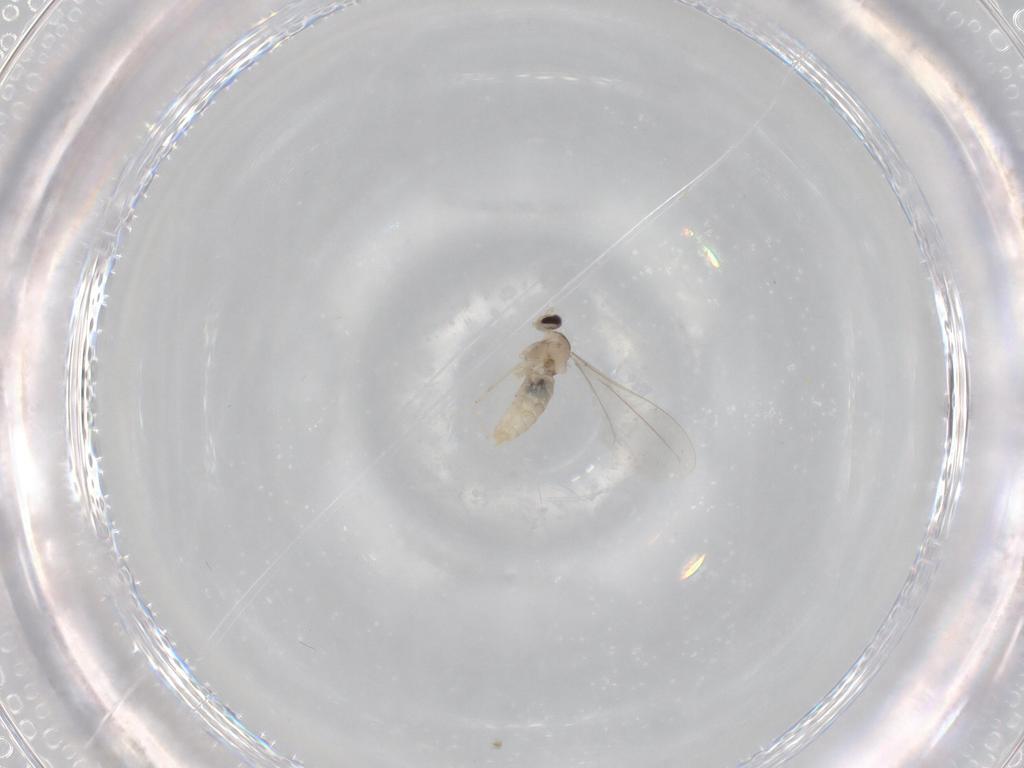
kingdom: Animalia
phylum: Arthropoda
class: Insecta
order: Diptera
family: Cecidomyiidae
